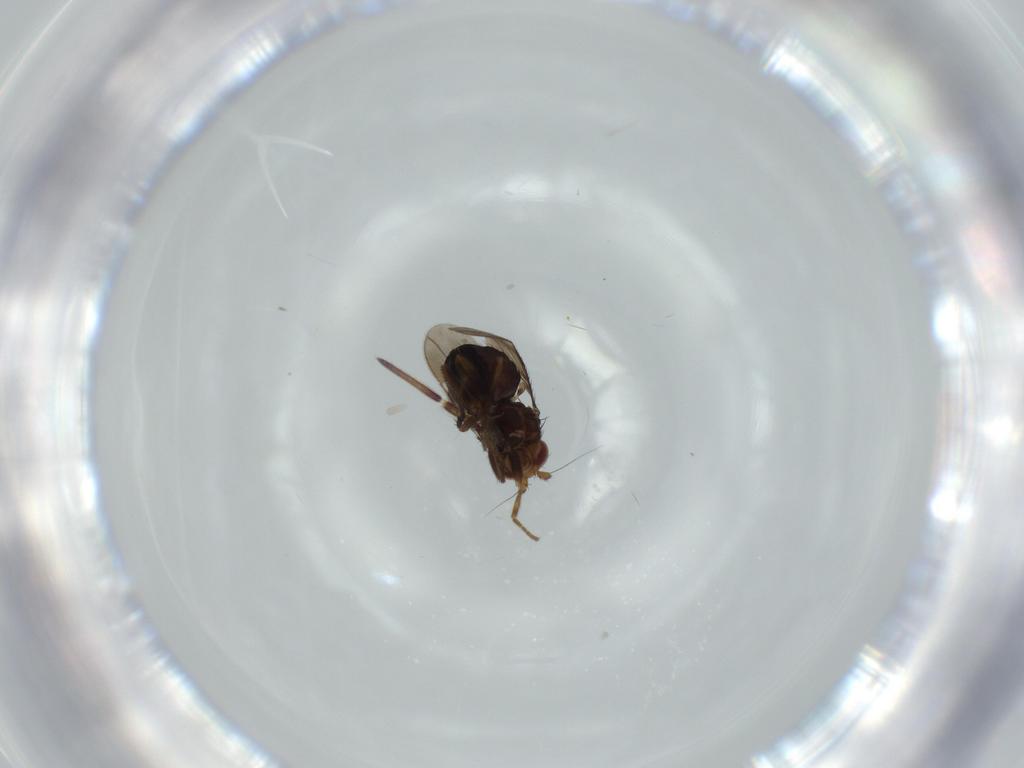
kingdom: Animalia
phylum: Arthropoda
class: Insecta
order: Diptera
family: Sphaeroceridae
